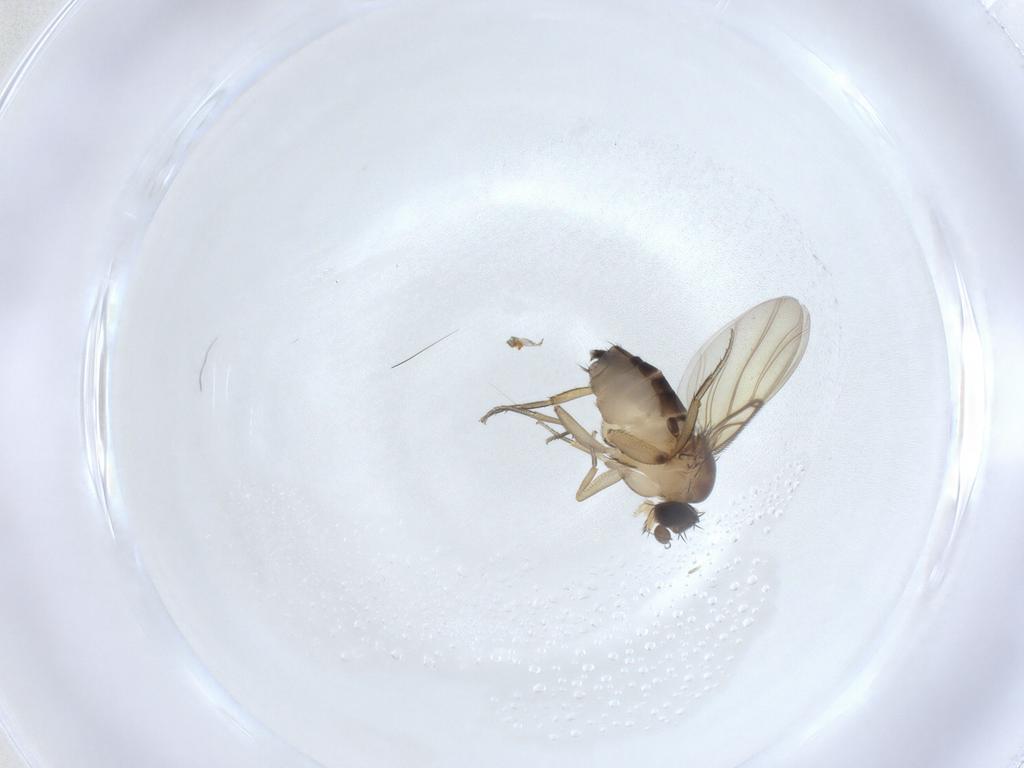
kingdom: Animalia
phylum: Arthropoda
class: Insecta
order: Diptera
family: Phoridae
